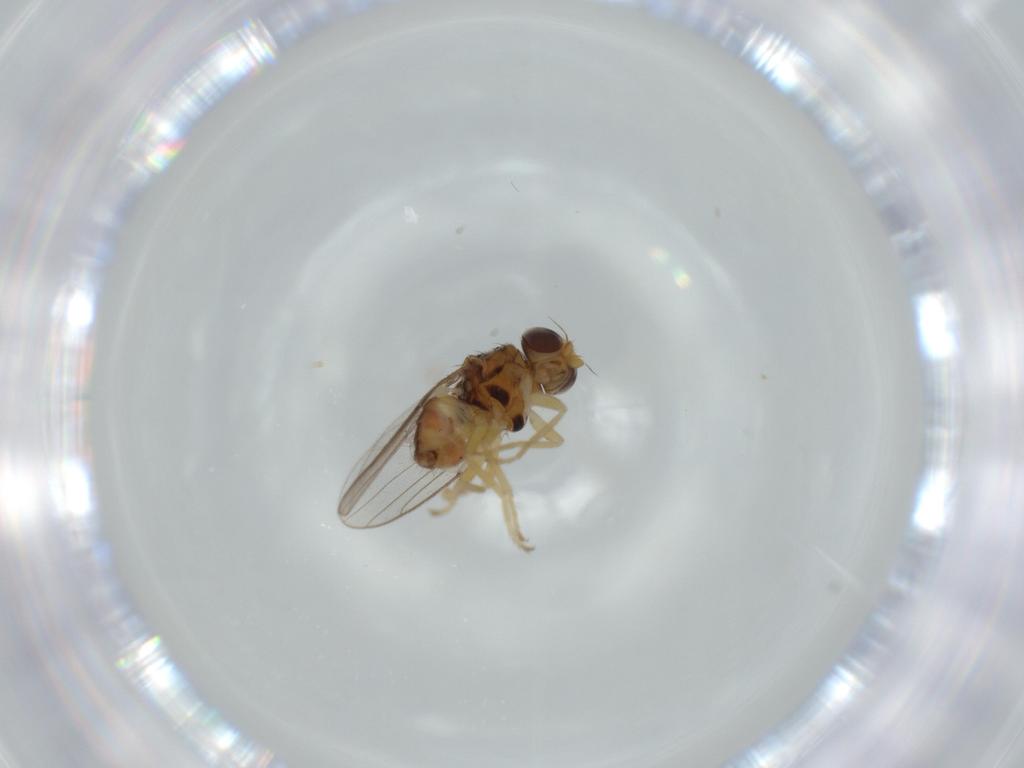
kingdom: Animalia
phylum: Arthropoda
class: Insecta
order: Diptera
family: Chloropidae
